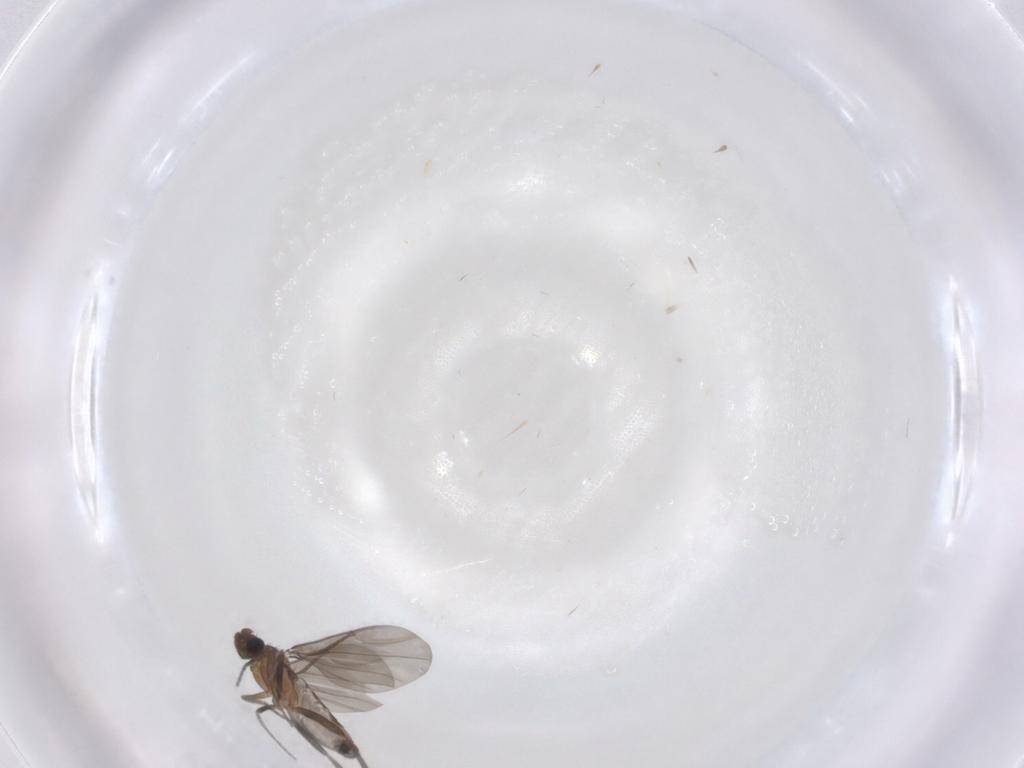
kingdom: Animalia
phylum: Arthropoda
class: Insecta
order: Diptera
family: Phoridae
